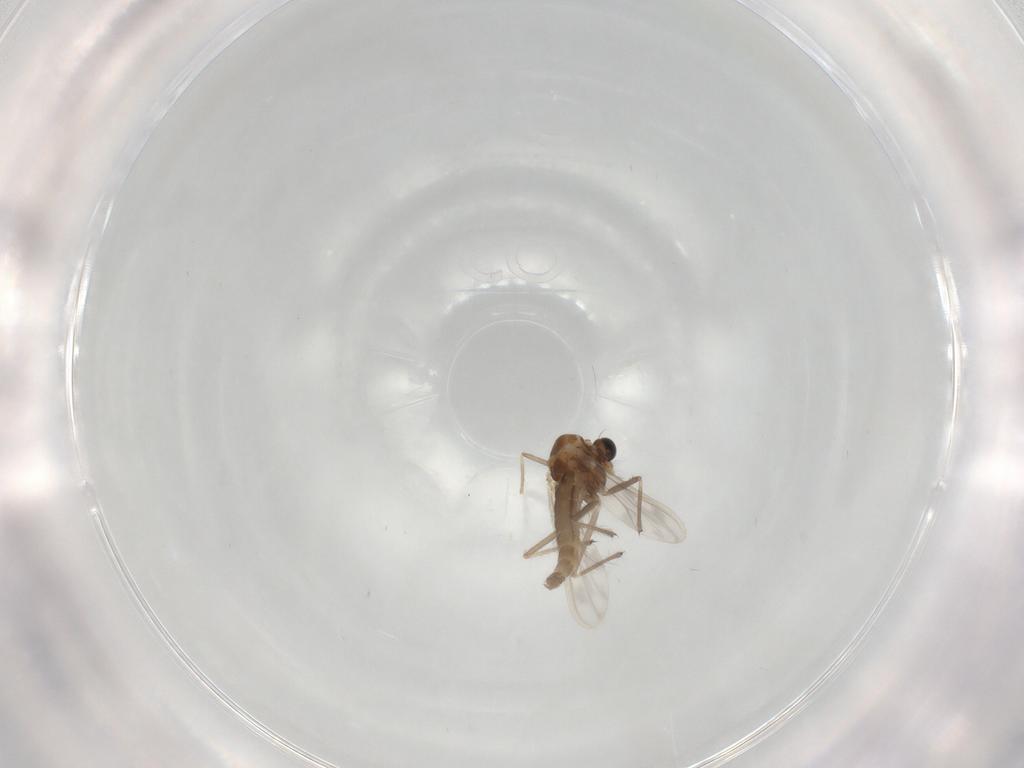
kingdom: Animalia
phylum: Arthropoda
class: Insecta
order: Diptera
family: Chironomidae
